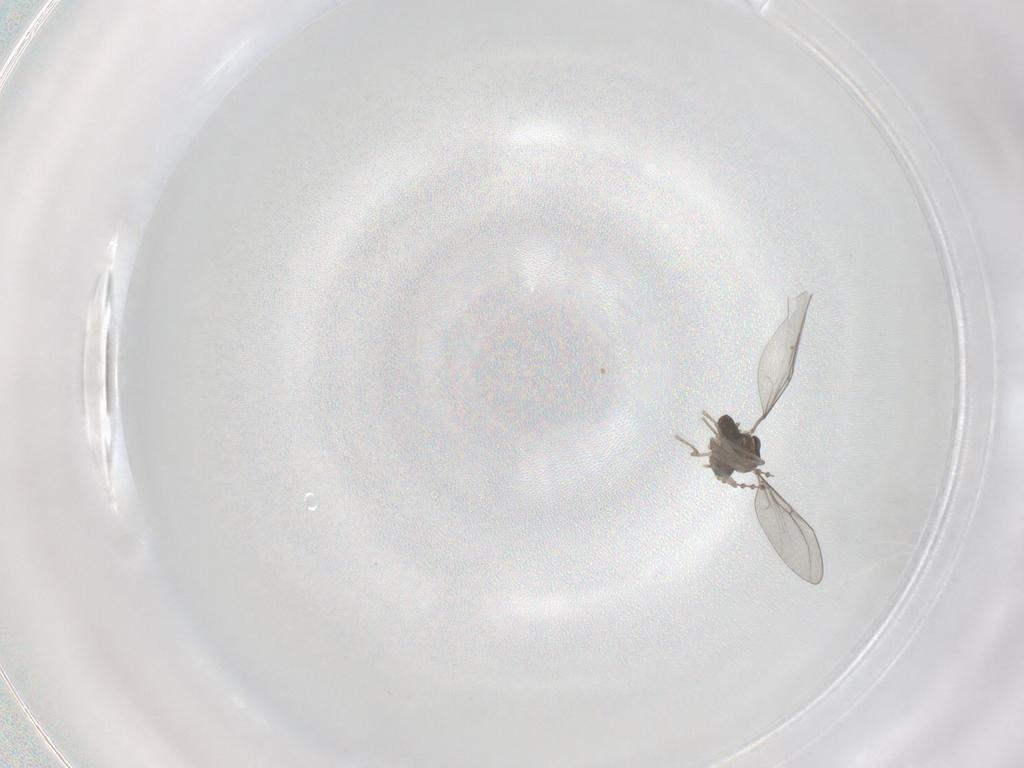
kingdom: Animalia
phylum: Arthropoda
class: Insecta
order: Diptera
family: Cecidomyiidae
